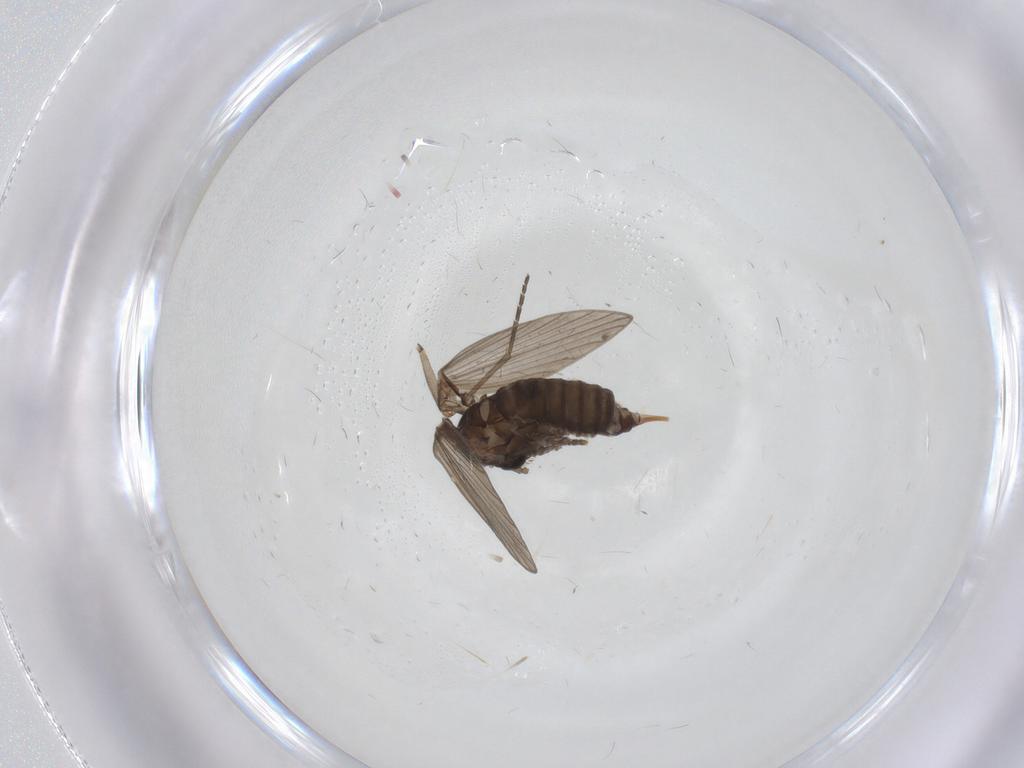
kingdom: Animalia
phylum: Arthropoda
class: Insecta
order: Diptera
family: Psychodidae
